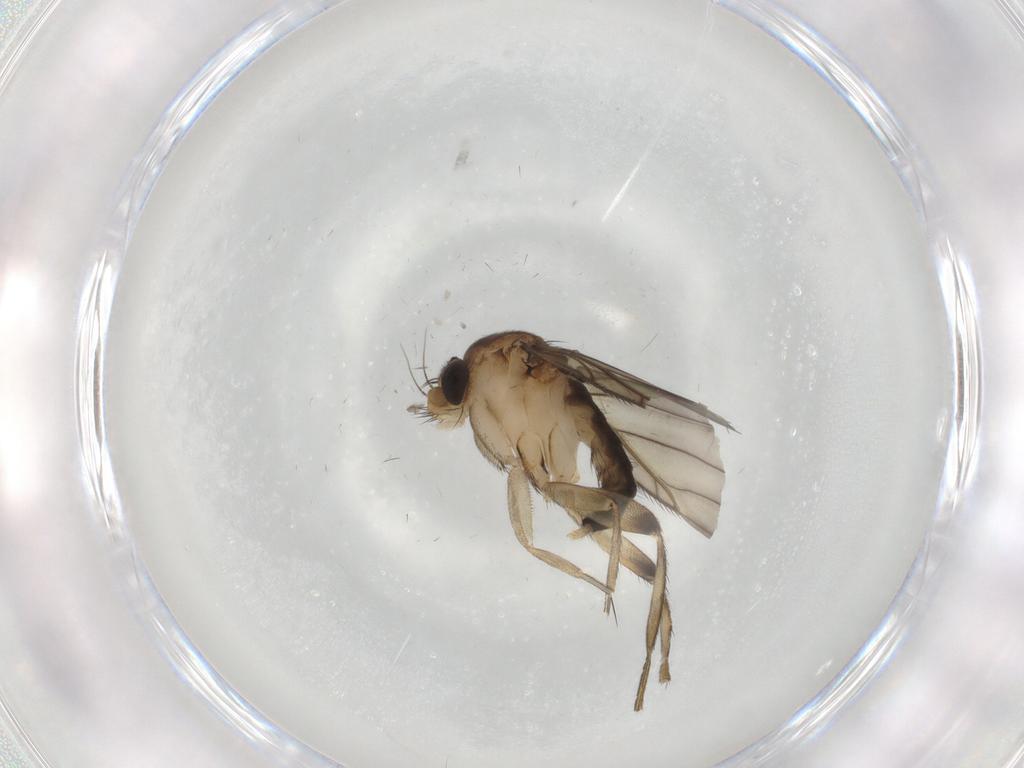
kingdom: Animalia
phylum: Arthropoda
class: Insecta
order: Diptera
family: Phoridae
